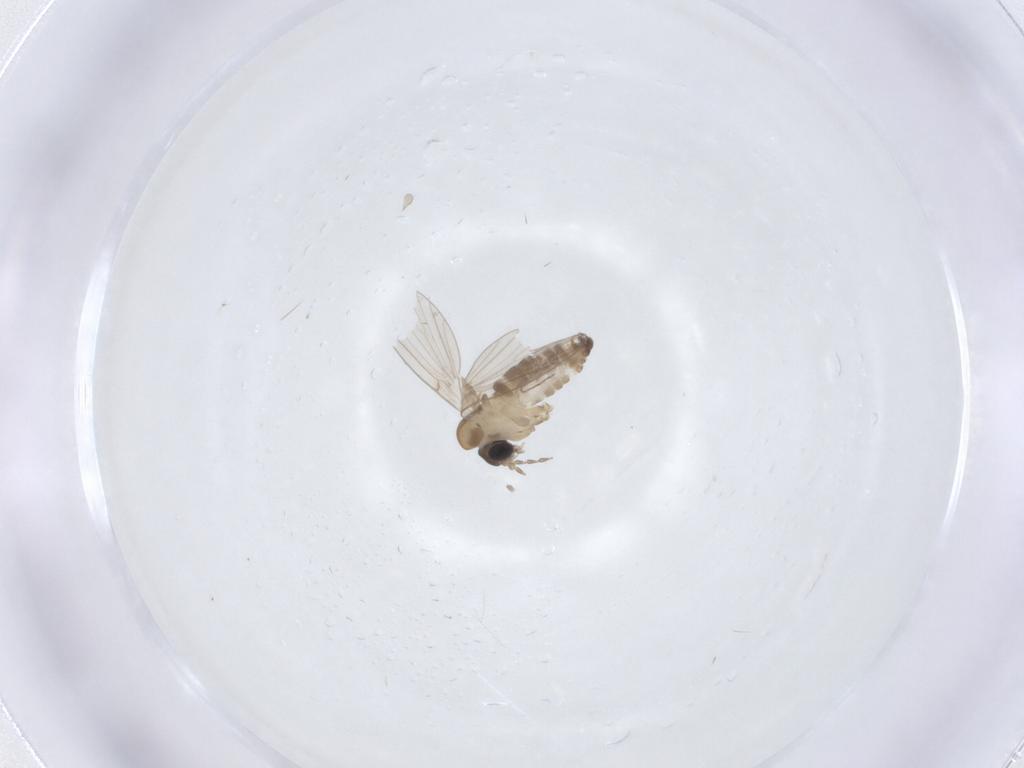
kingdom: Animalia
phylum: Arthropoda
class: Insecta
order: Diptera
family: Psychodidae
